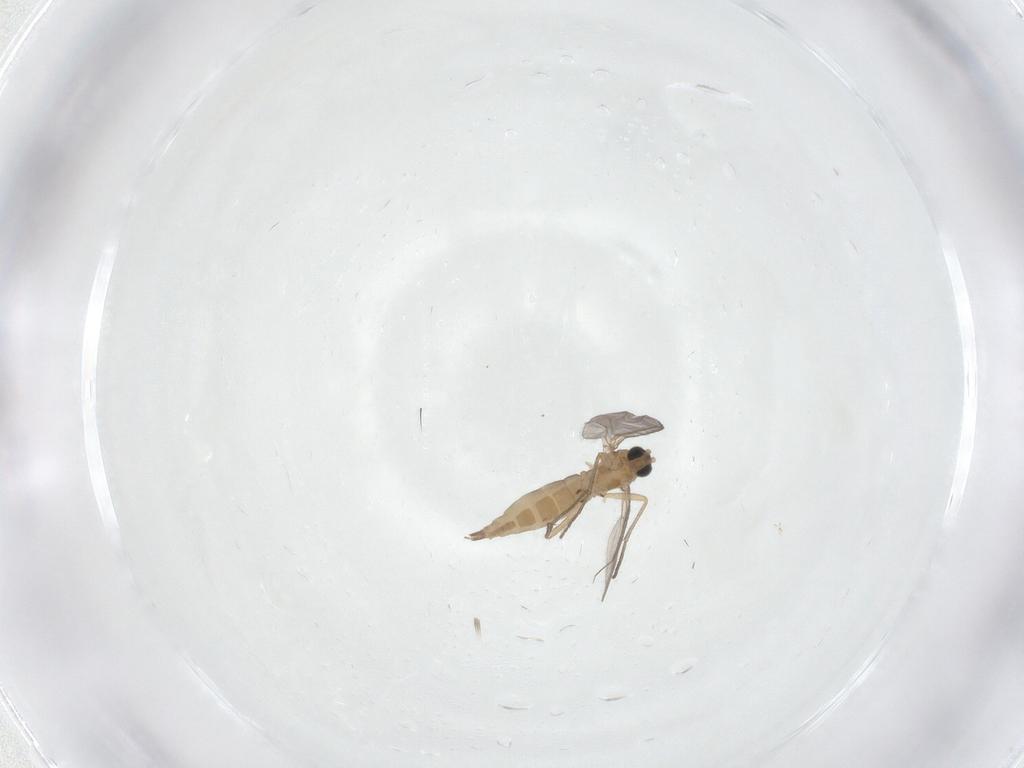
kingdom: Animalia
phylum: Arthropoda
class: Insecta
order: Diptera
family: Sciaridae
